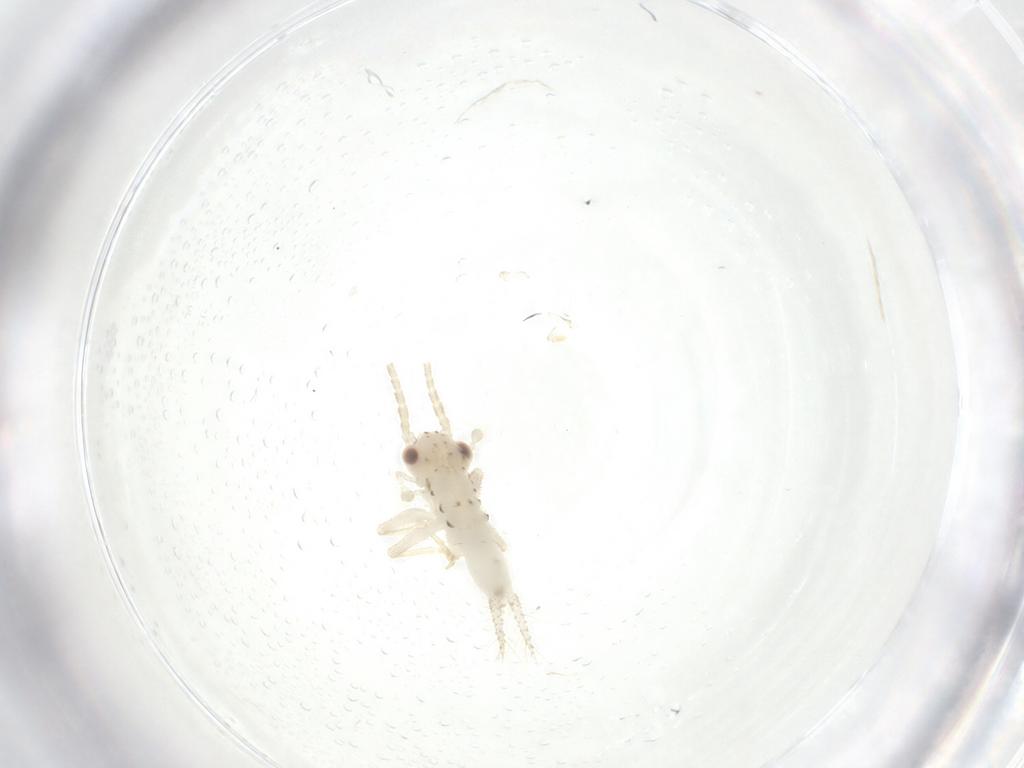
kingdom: Animalia
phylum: Arthropoda
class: Insecta
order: Orthoptera
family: Trigonidiidae
